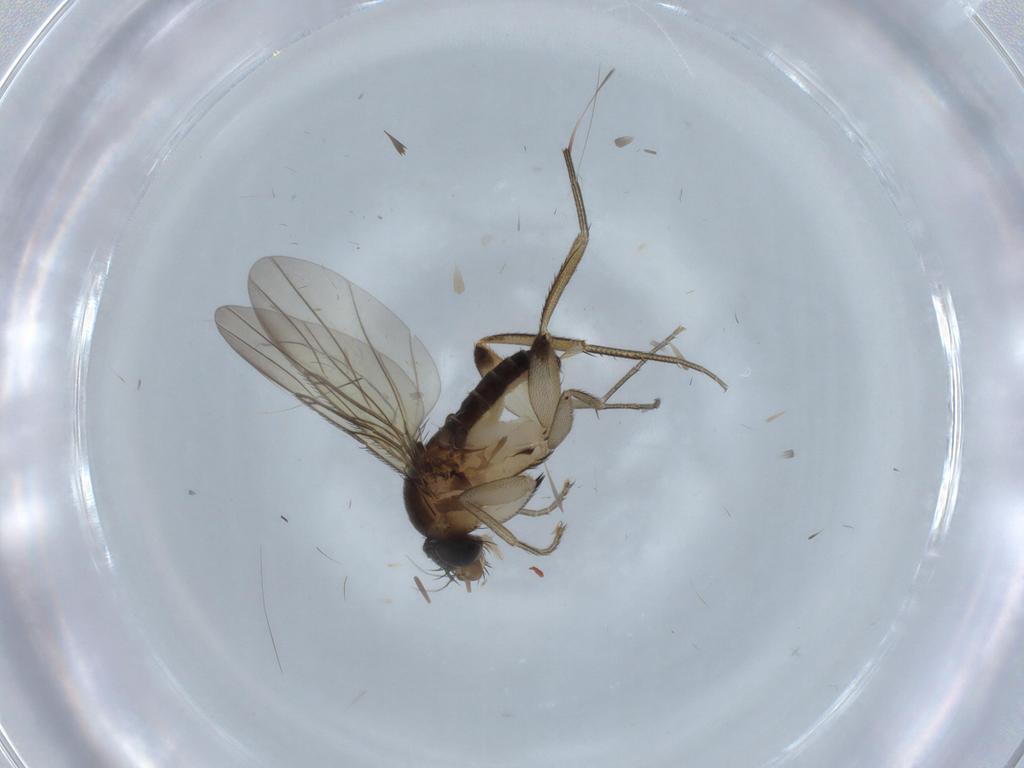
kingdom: Animalia
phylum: Arthropoda
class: Insecta
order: Diptera
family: Phoridae
